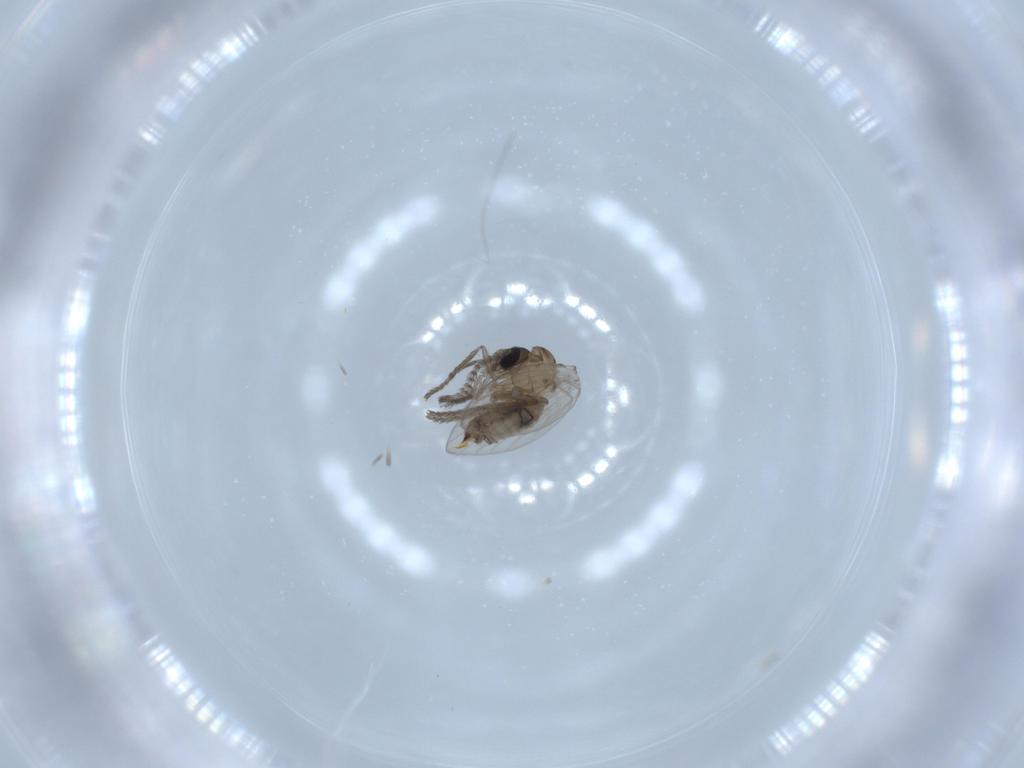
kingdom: Animalia
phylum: Arthropoda
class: Insecta
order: Diptera
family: Psychodidae
